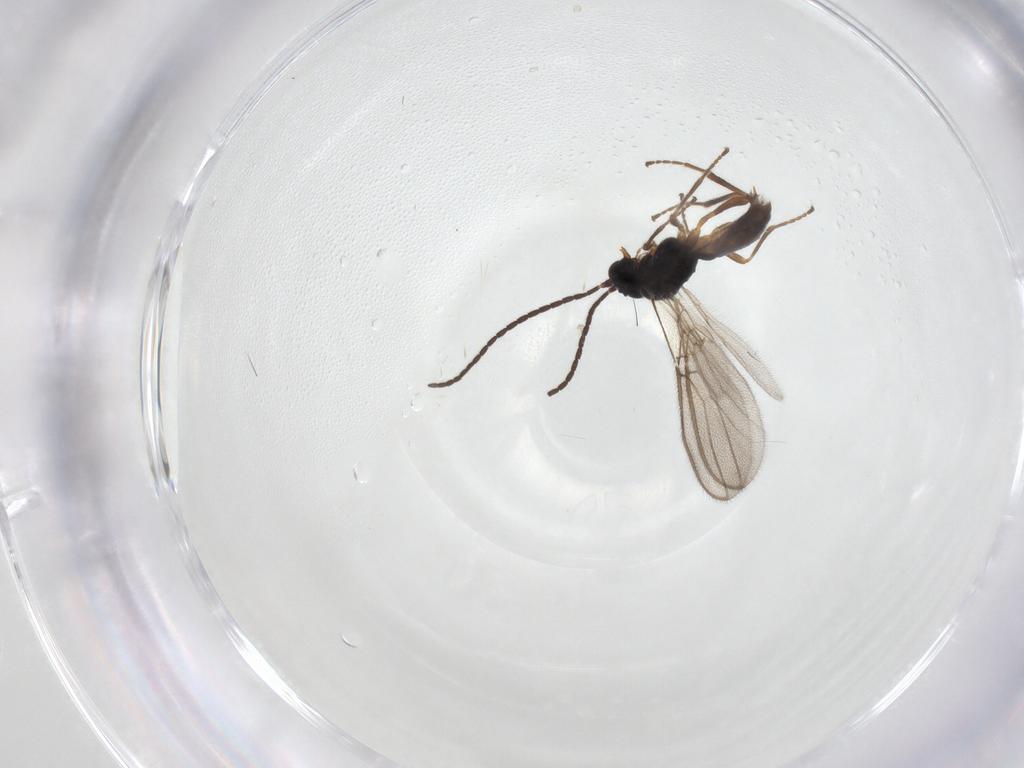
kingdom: Animalia
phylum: Arthropoda
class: Insecta
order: Hymenoptera
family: Braconidae
